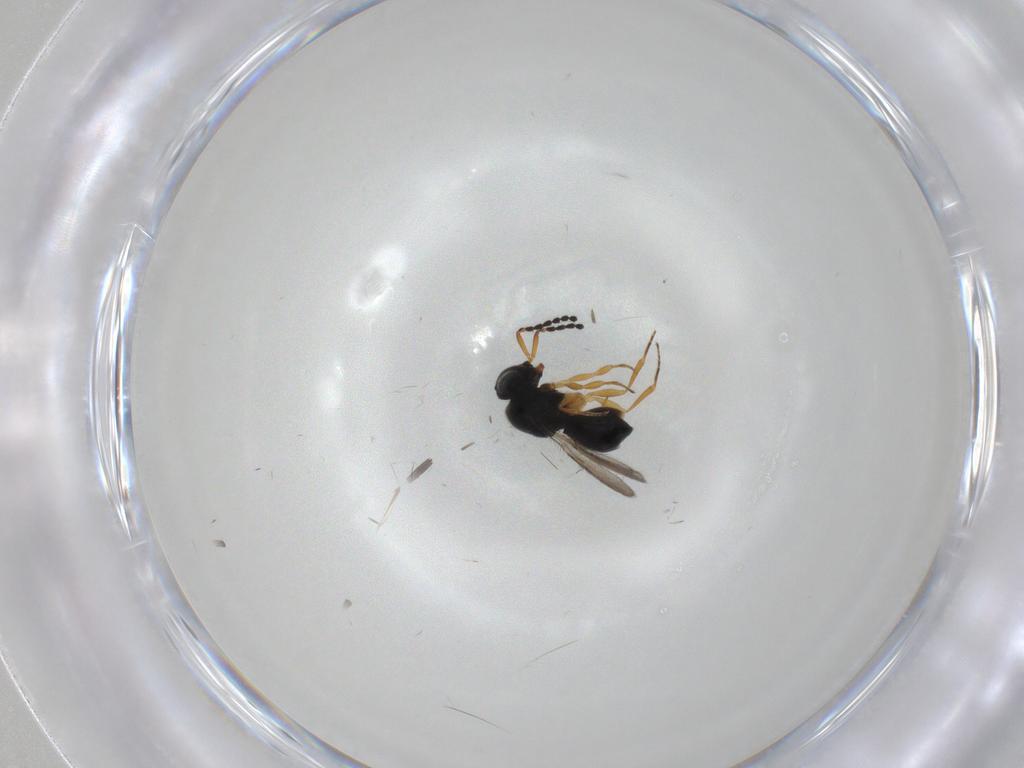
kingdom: Animalia
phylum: Arthropoda
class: Insecta
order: Hymenoptera
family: Scelionidae
